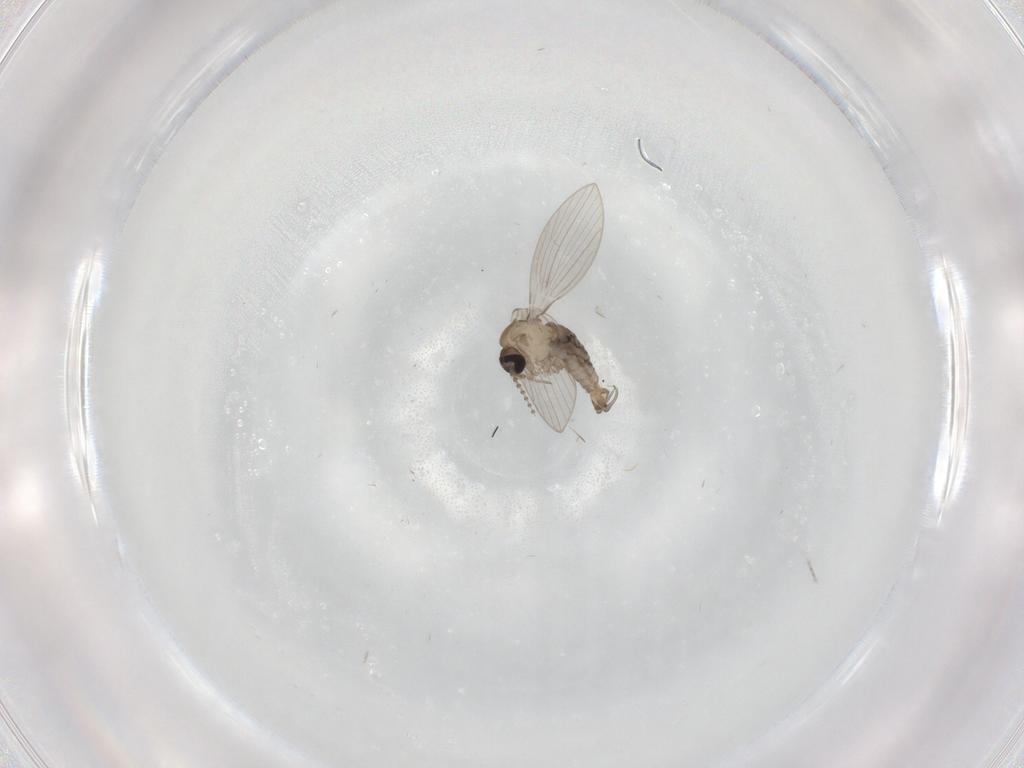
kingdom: Animalia
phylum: Arthropoda
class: Insecta
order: Diptera
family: Psychodidae
